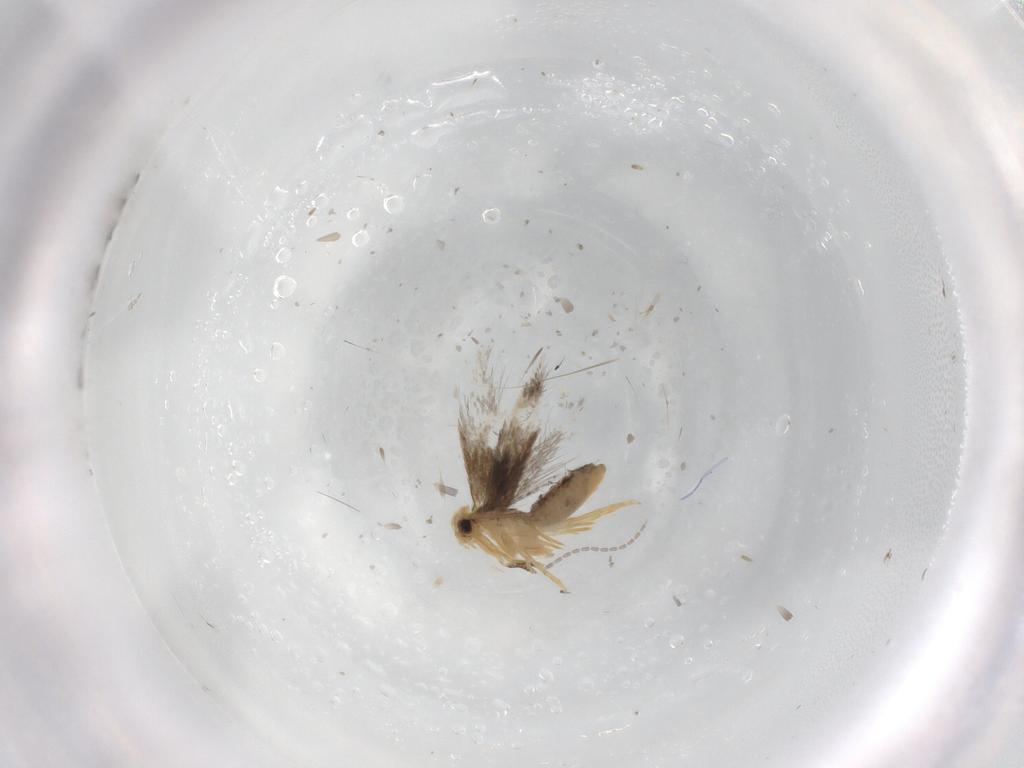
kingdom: Animalia
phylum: Arthropoda
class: Insecta
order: Lepidoptera
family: Nepticulidae
